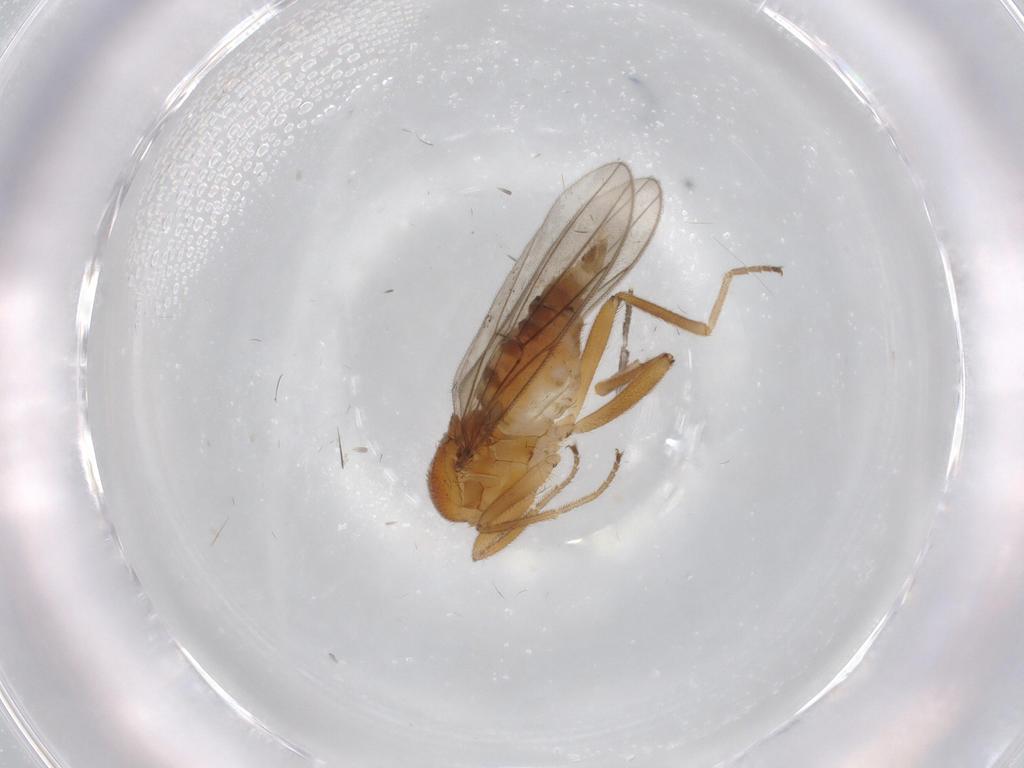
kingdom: Animalia
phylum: Arthropoda
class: Insecta
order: Diptera
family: Hybotidae
